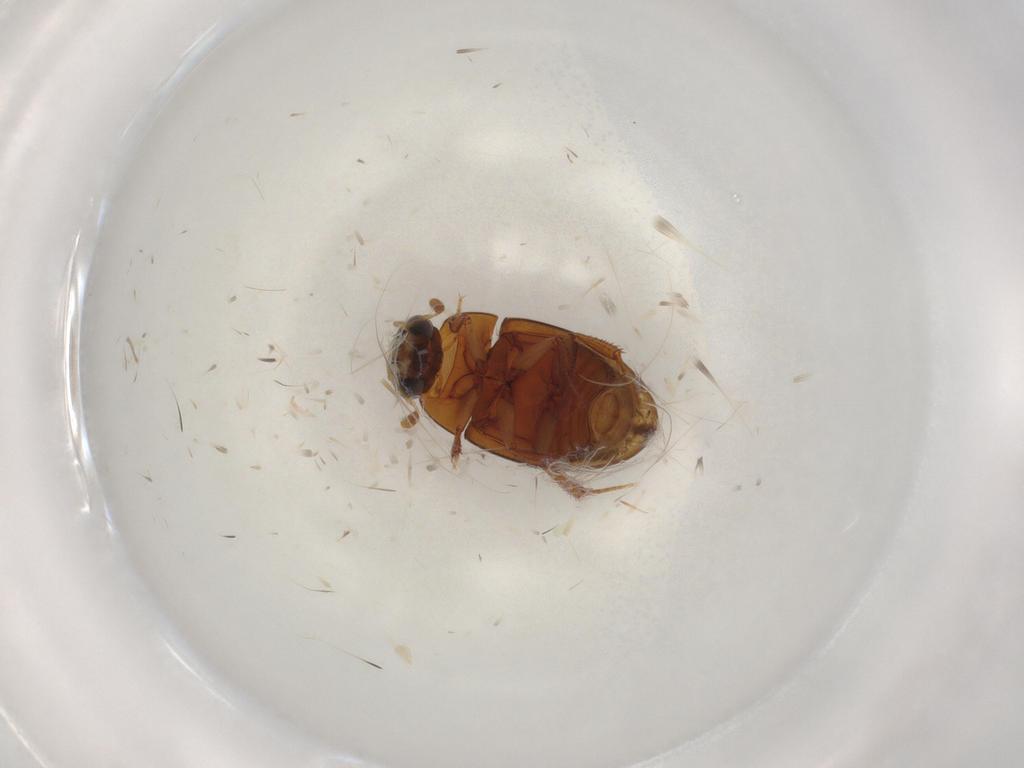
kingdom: Animalia
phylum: Arthropoda
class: Insecta
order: Coleoptera
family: Hydrophilidae
